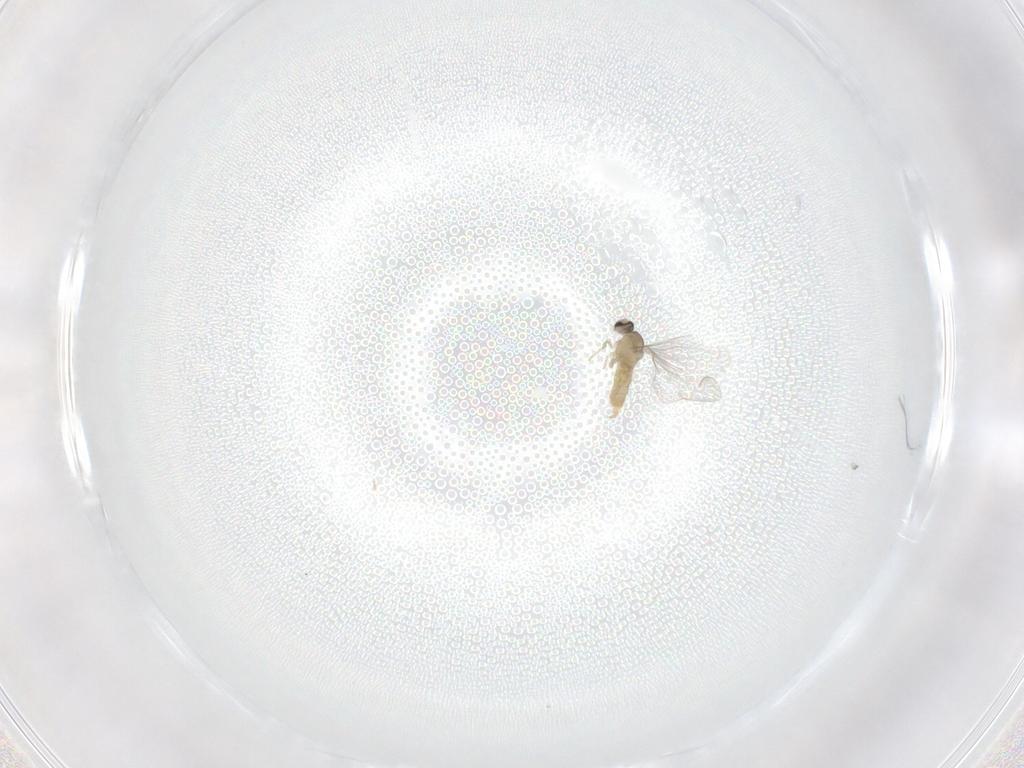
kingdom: Animalia
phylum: Arthropoda
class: Insecta
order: Diptera
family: Cecidomyiidae
